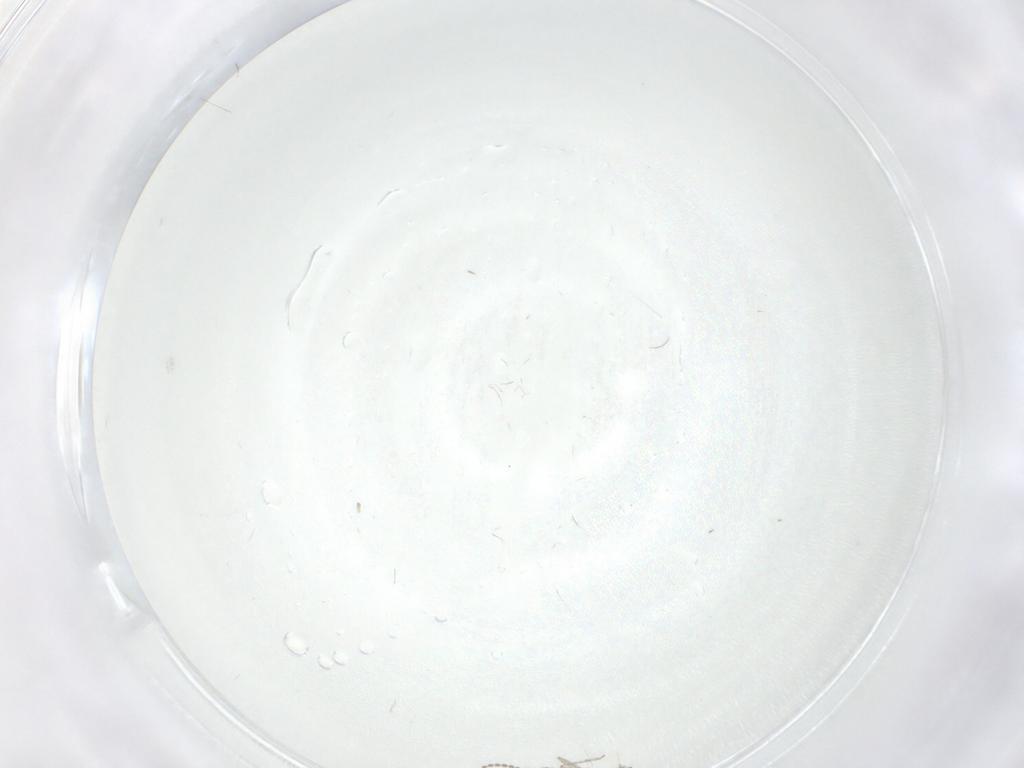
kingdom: Animalia
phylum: Arthropoda
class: Insecta
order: Diptera
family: Cecidomyiidae
